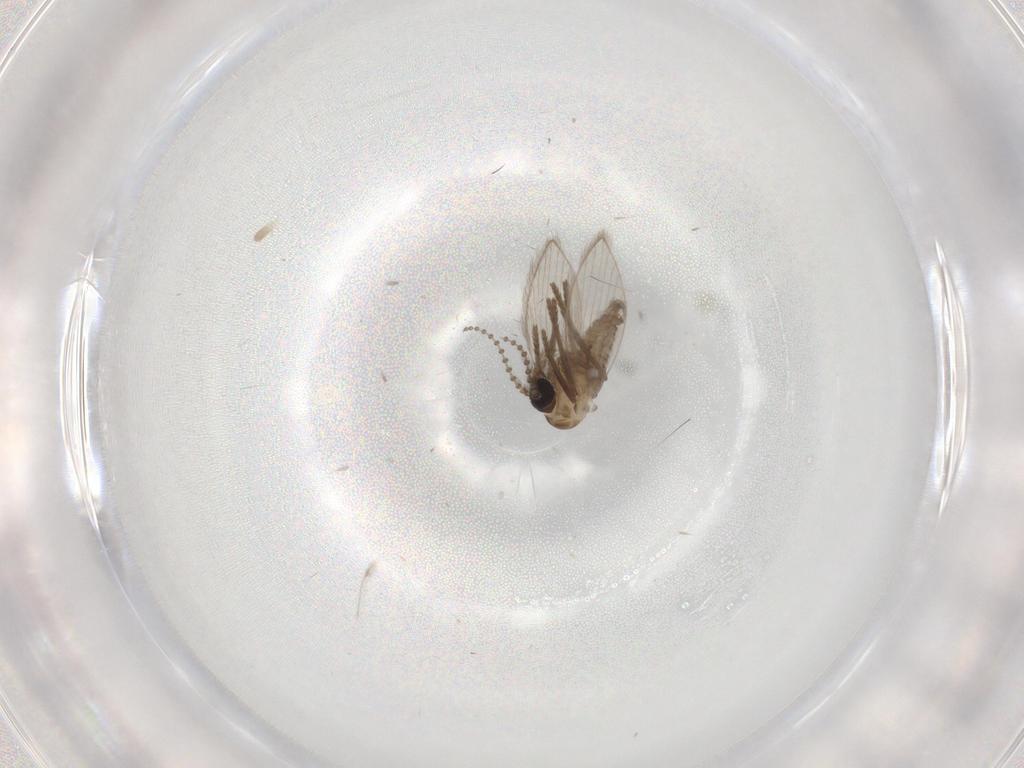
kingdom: Animalia
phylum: Arthropoda
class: Insecta
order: Diptera
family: Psychodidae
